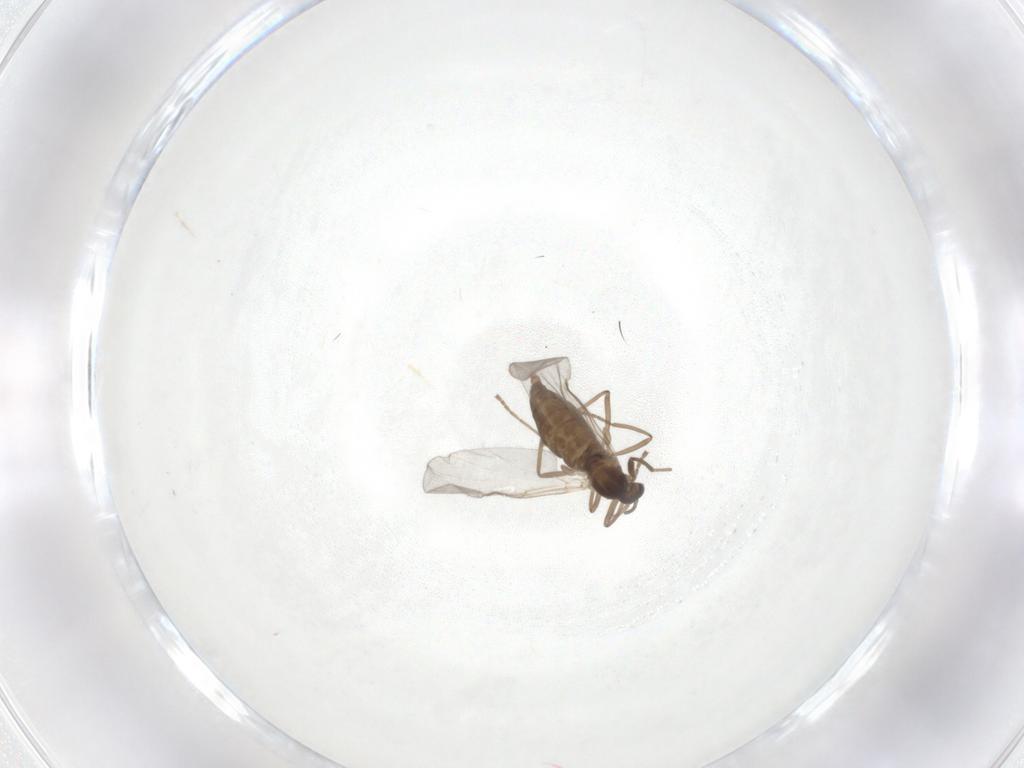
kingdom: Animalia
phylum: Arthropoda
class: Insecta
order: Diptera
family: Cecidomyiidae
